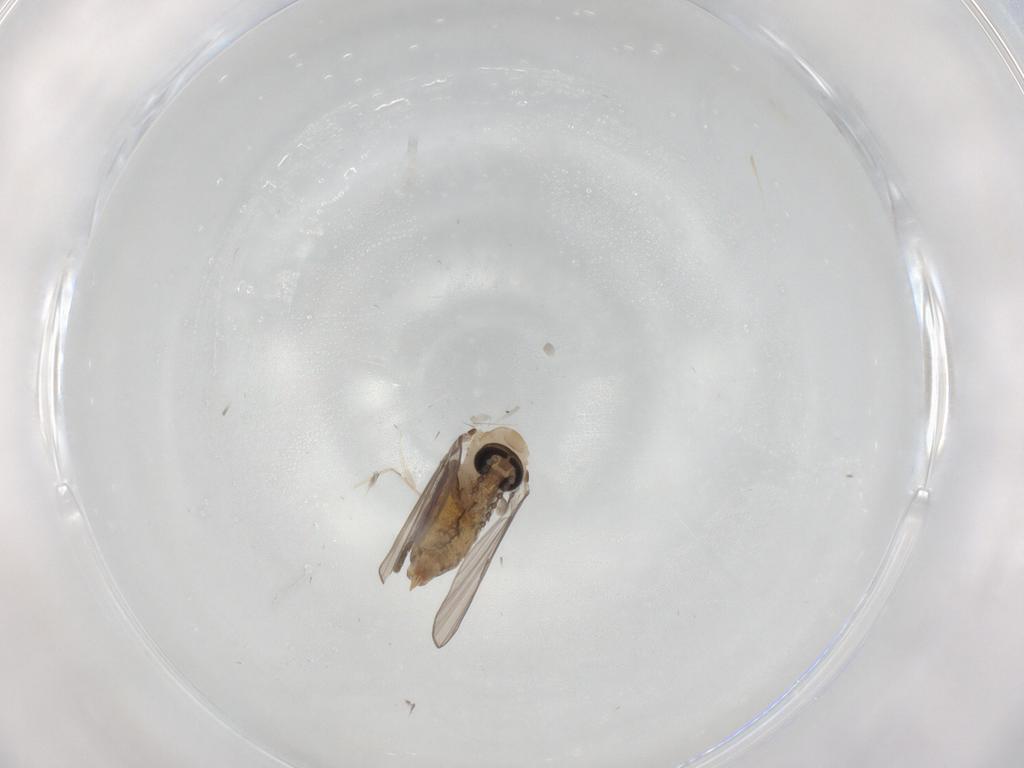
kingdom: Animalia
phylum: Arthropoda
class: Insecta
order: Diptera
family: Psychodidae
